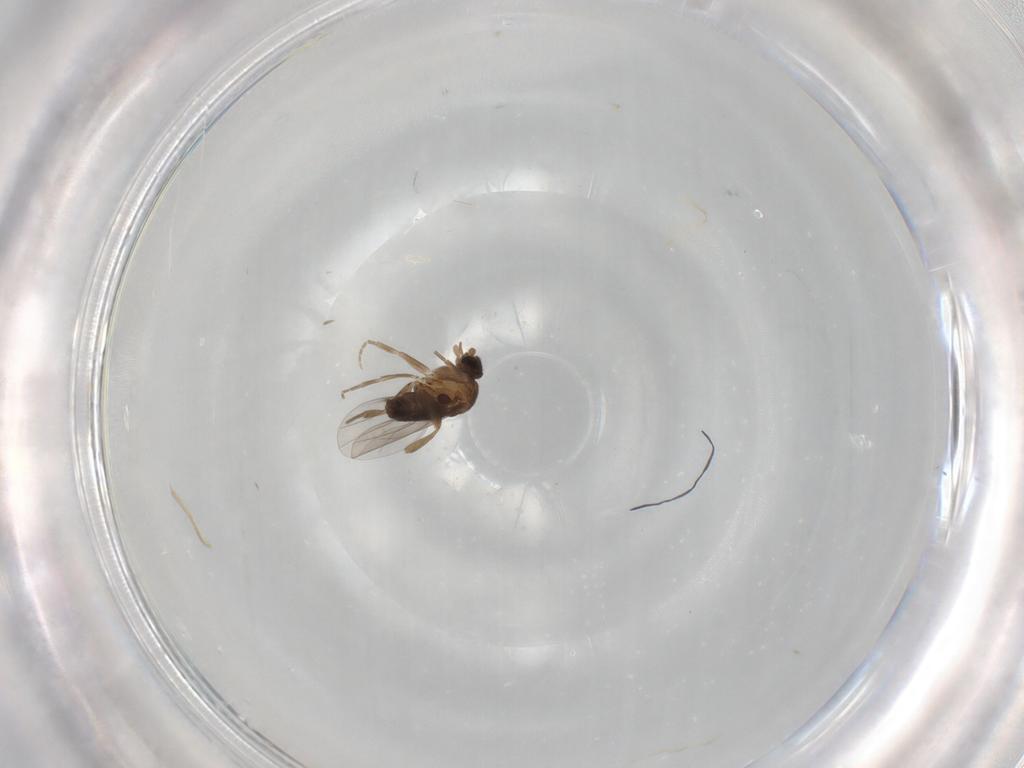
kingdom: Animalia
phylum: Arthropoda
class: Insecta
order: Diptera
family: Phoridae
